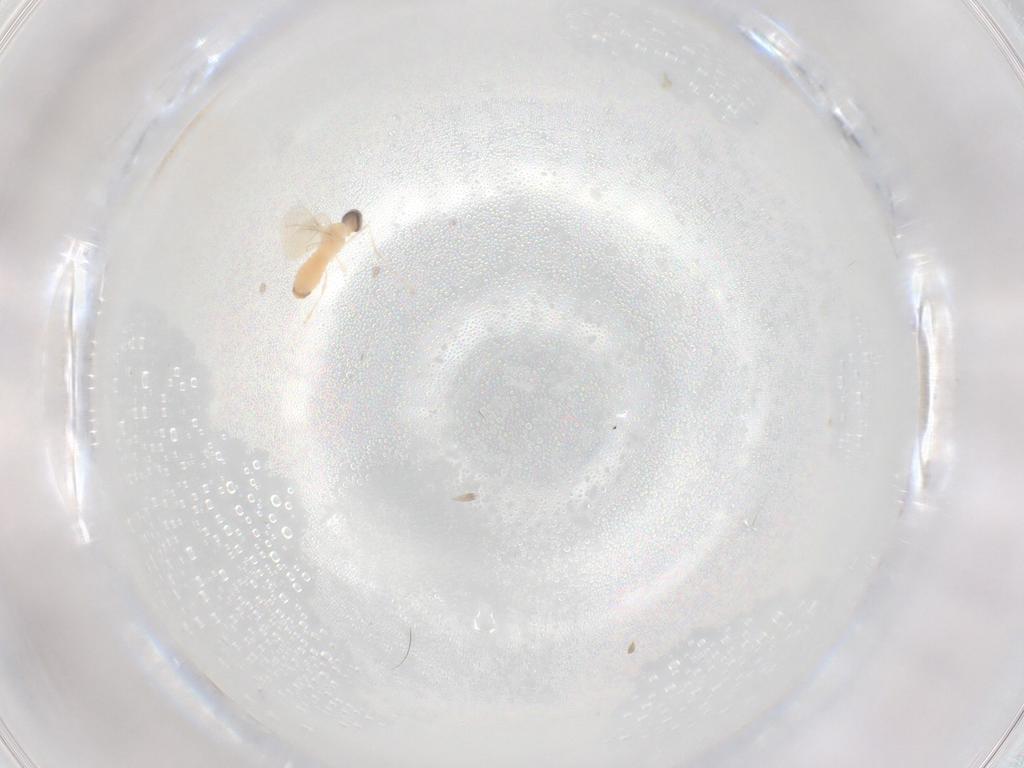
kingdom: Animalia
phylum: Arthropoda
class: Insecta
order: Diptera
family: Cecidomyiidae
